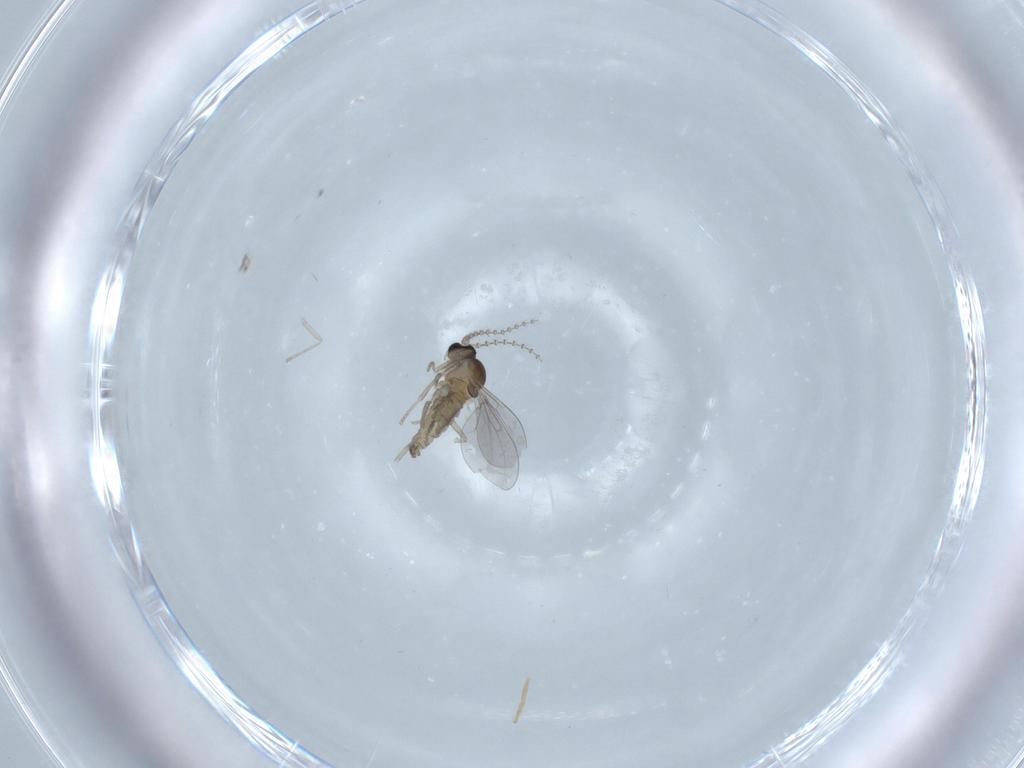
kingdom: Animalia
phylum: Arthropoda
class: Insecta
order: Diptera
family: Cecidomyiidae
